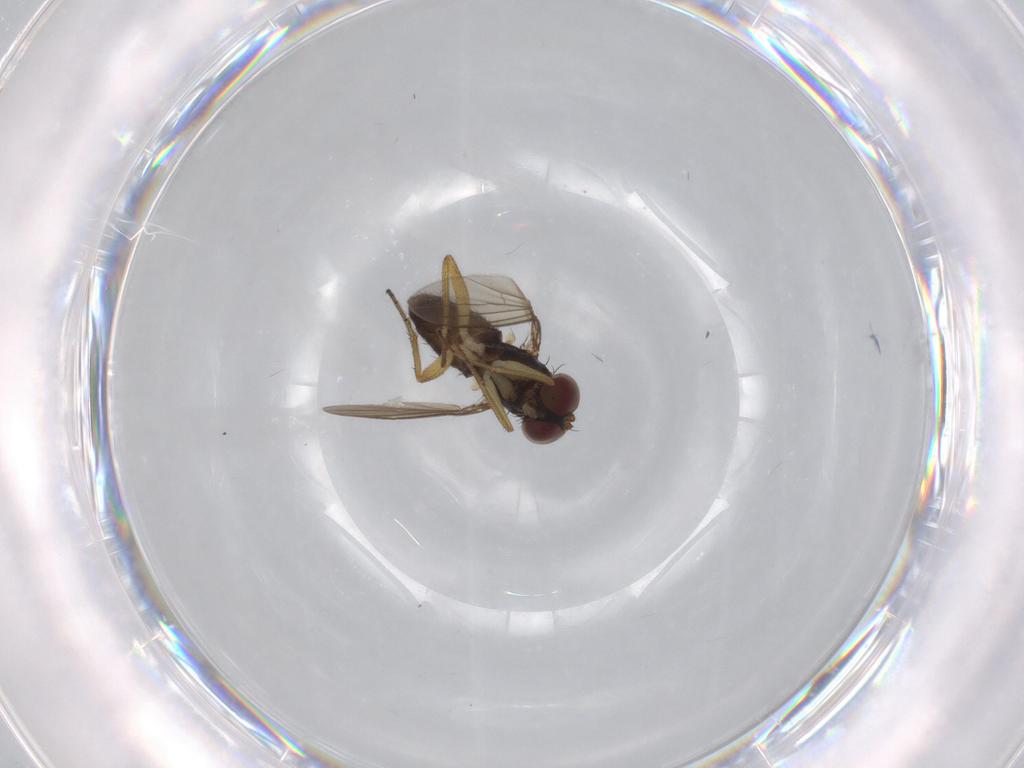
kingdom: Animalia
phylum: Arthropoda
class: Insecta
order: Diptera
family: Dolichopodidae
